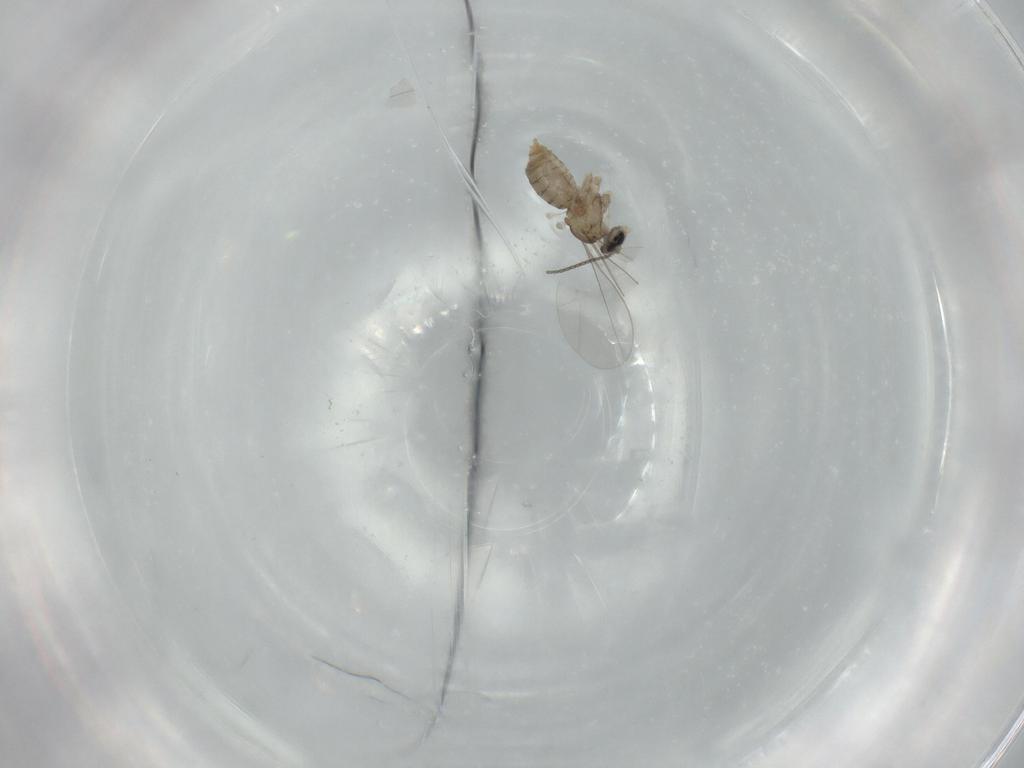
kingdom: Animalia
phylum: Arthropoda
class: Insecta
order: Diptera
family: Cecidomyiidae
